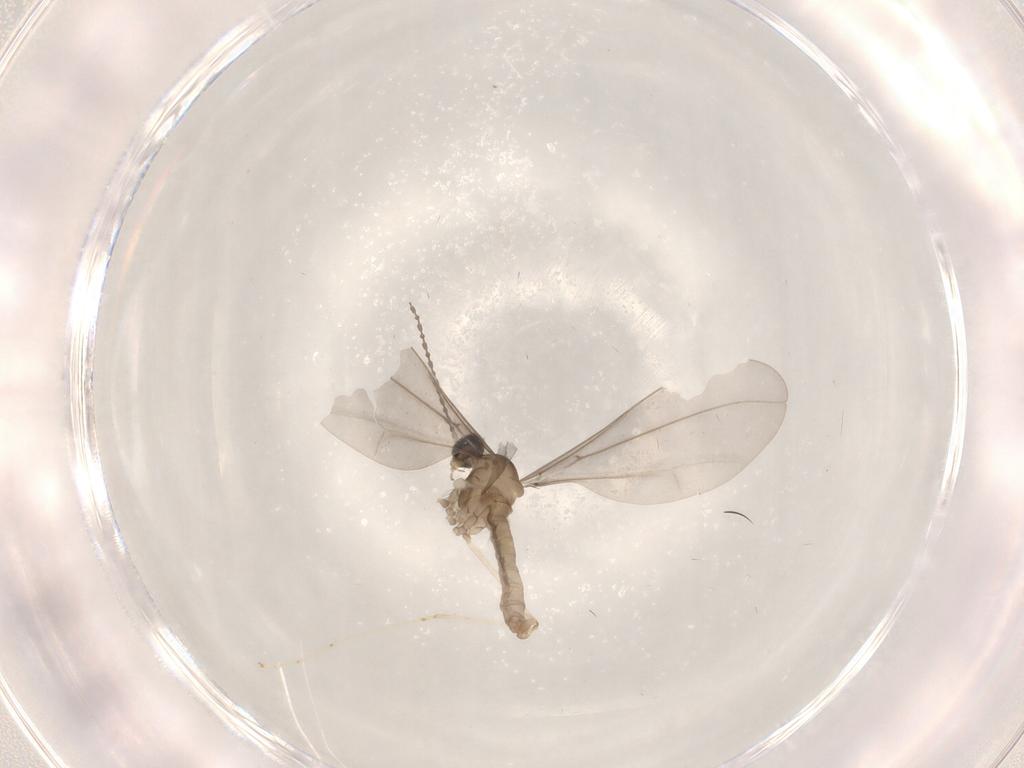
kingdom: Animalia
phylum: Arthropoda
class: Insecta
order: Diptera
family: Cecidomyiidae
